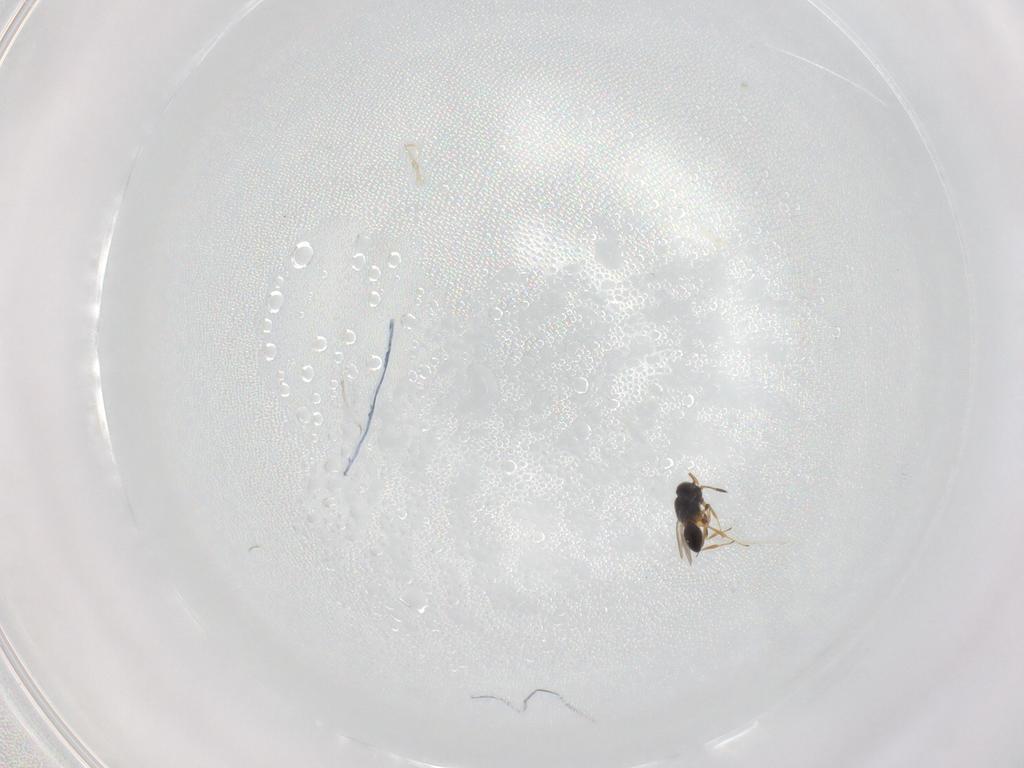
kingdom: Animalia
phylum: Arthropoda
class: Insecta
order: Hymenoptera
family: Platygastridae
